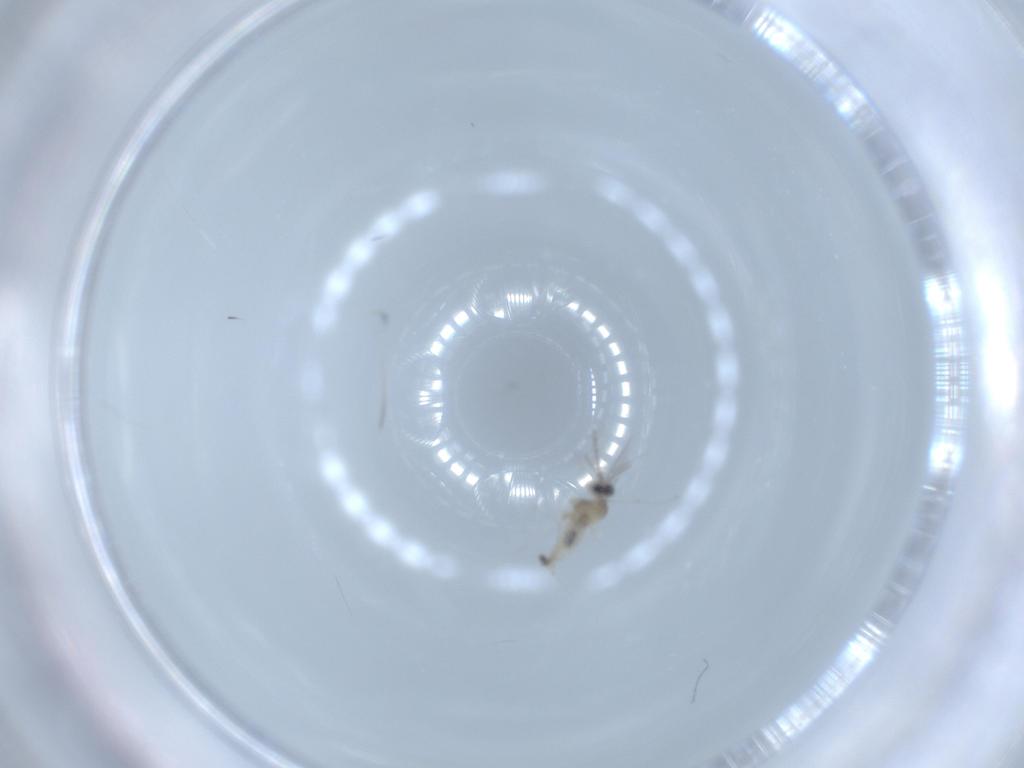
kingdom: Animalia
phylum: Arthropoda
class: Insecta
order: Diptera
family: Cecidomyiidae
